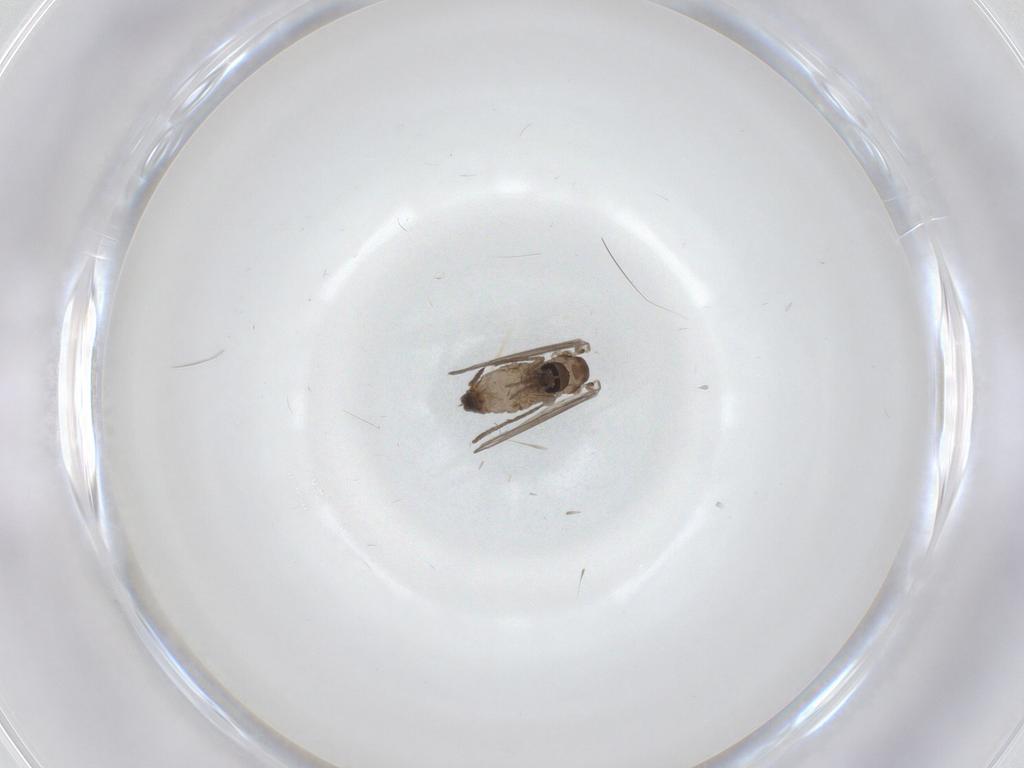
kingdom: Animalia
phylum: Arthropoda
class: Insecta
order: Diptera
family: Psychodidae
